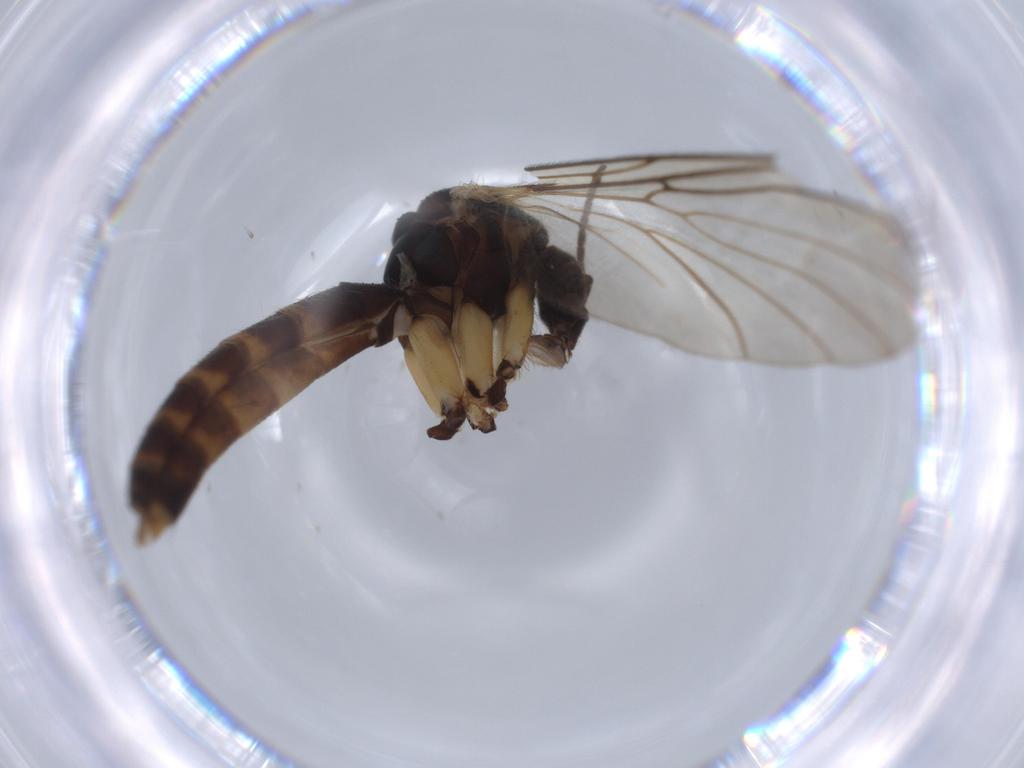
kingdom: Animalia
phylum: Arthropoda
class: Insecta
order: Diptera
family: Mycetophilidae
